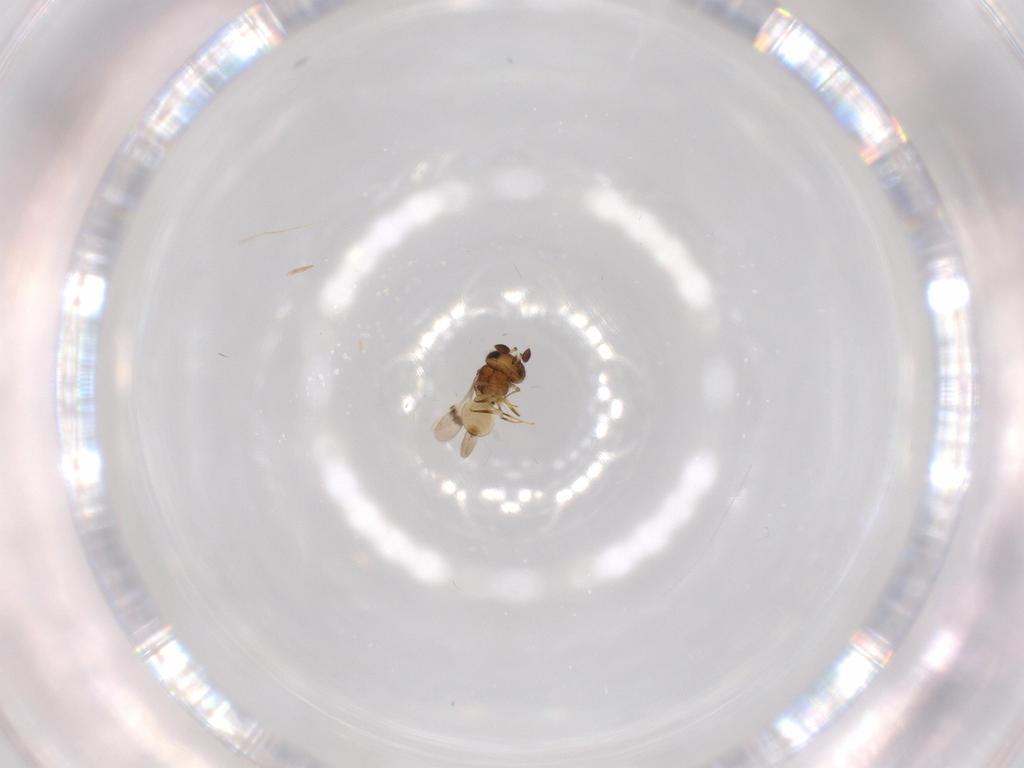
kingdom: Animalia
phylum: Arthropoda
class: Arachnida
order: Araneae
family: Pholcidae
